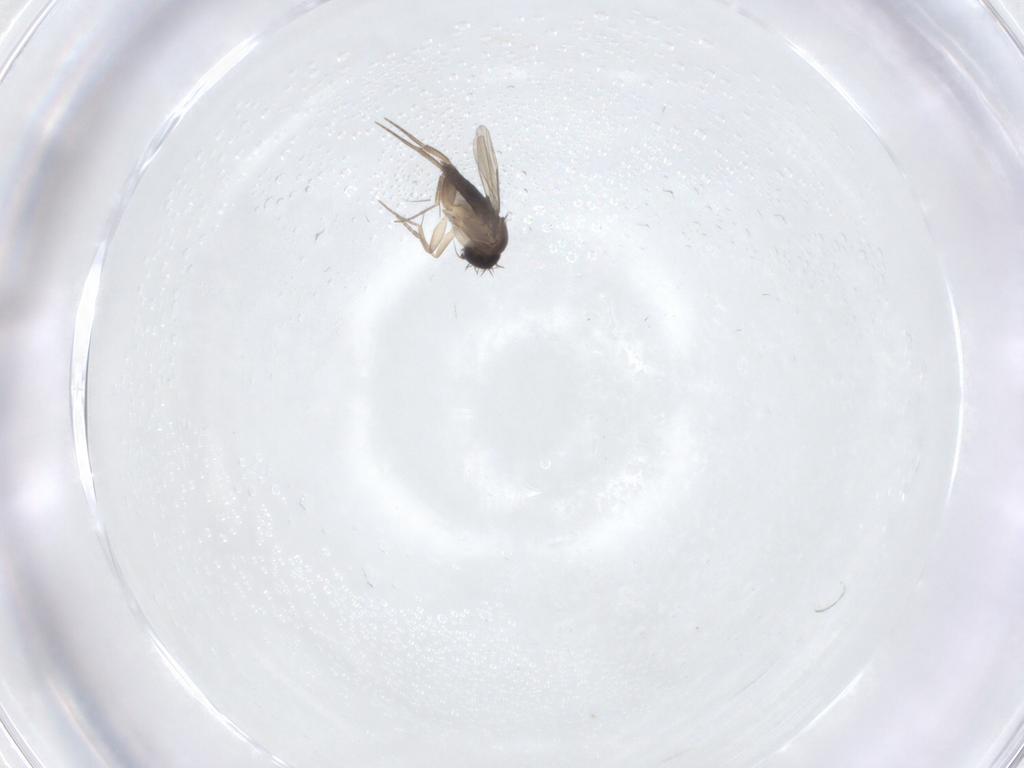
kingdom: Animalia
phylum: Arthropoda
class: Insecta
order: Diptera
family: Phoridae
